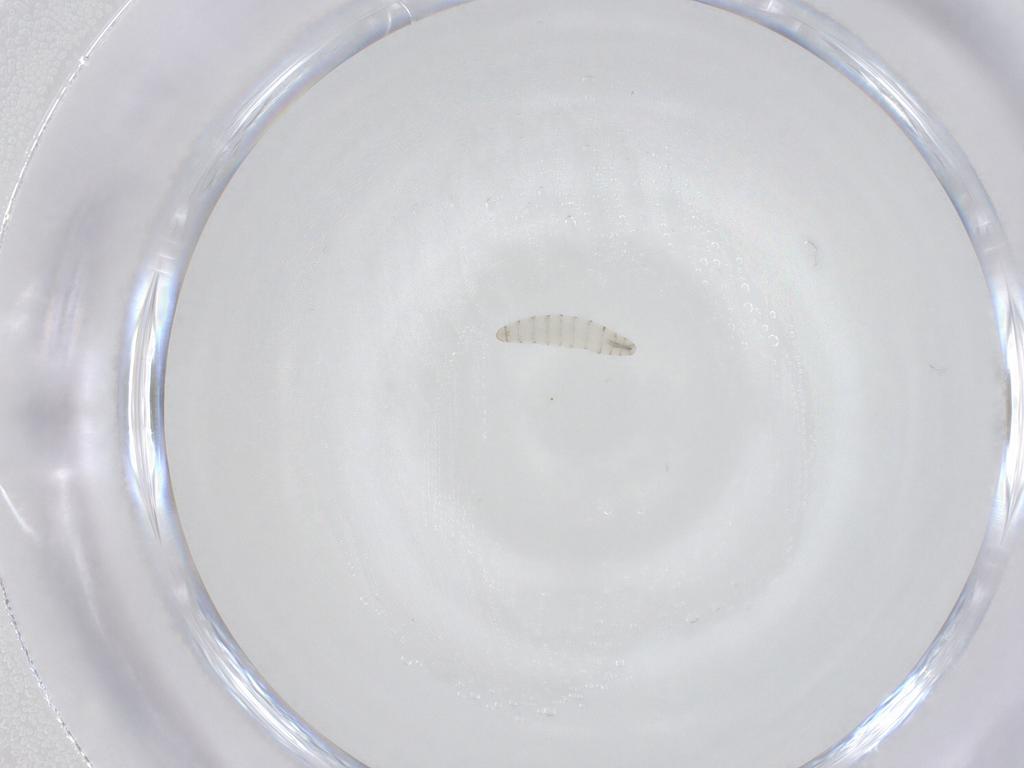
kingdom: Animalia
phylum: Arthropoda
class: Insecta
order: Diptera
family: Calliphoridae
